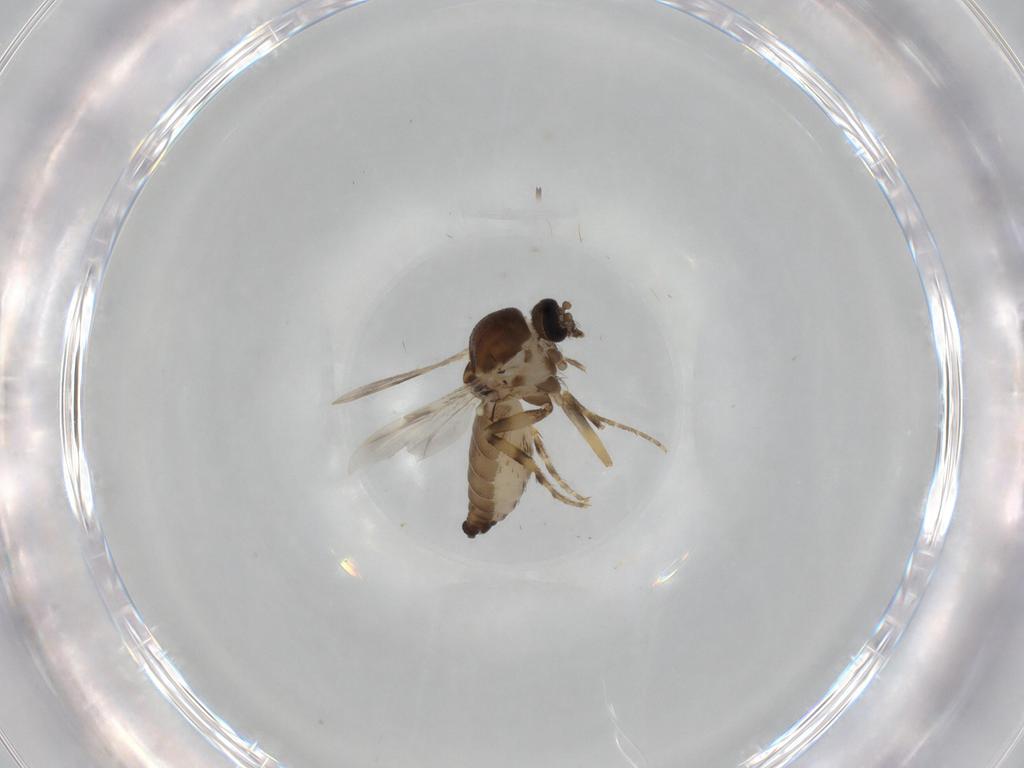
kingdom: Animalia
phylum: Arthropoda
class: Insecta
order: Diptera
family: Ceratopogonidae
